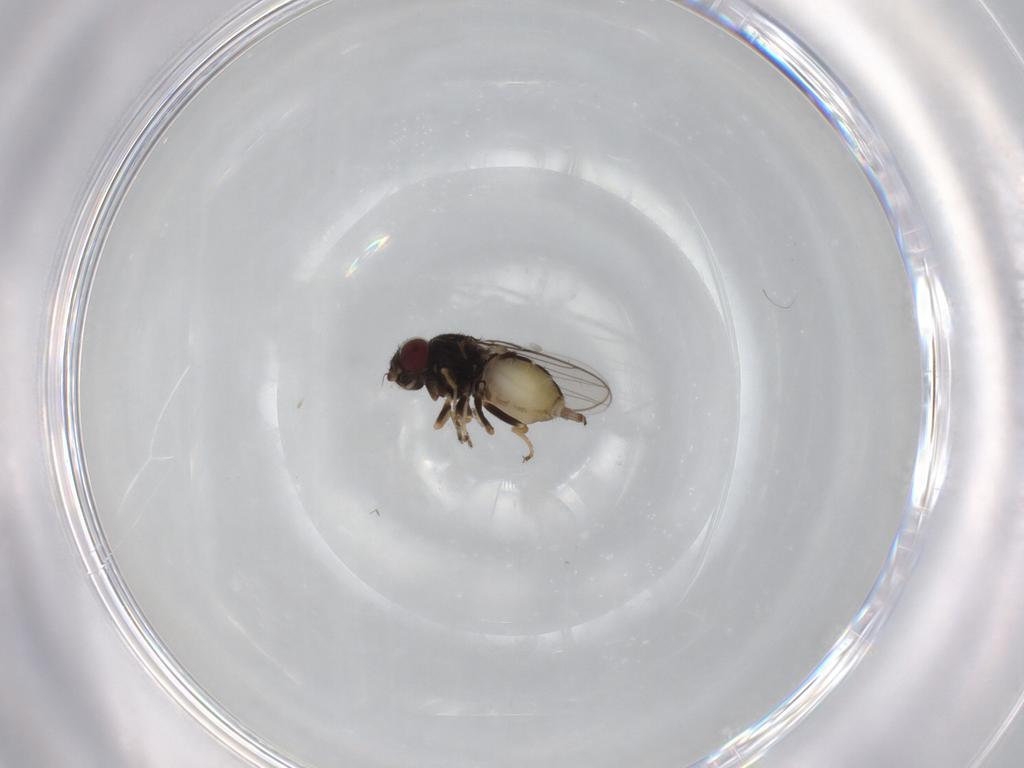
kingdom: Animalia
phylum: Arthropoda
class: Insecta
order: Diptera
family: Chloropidae
